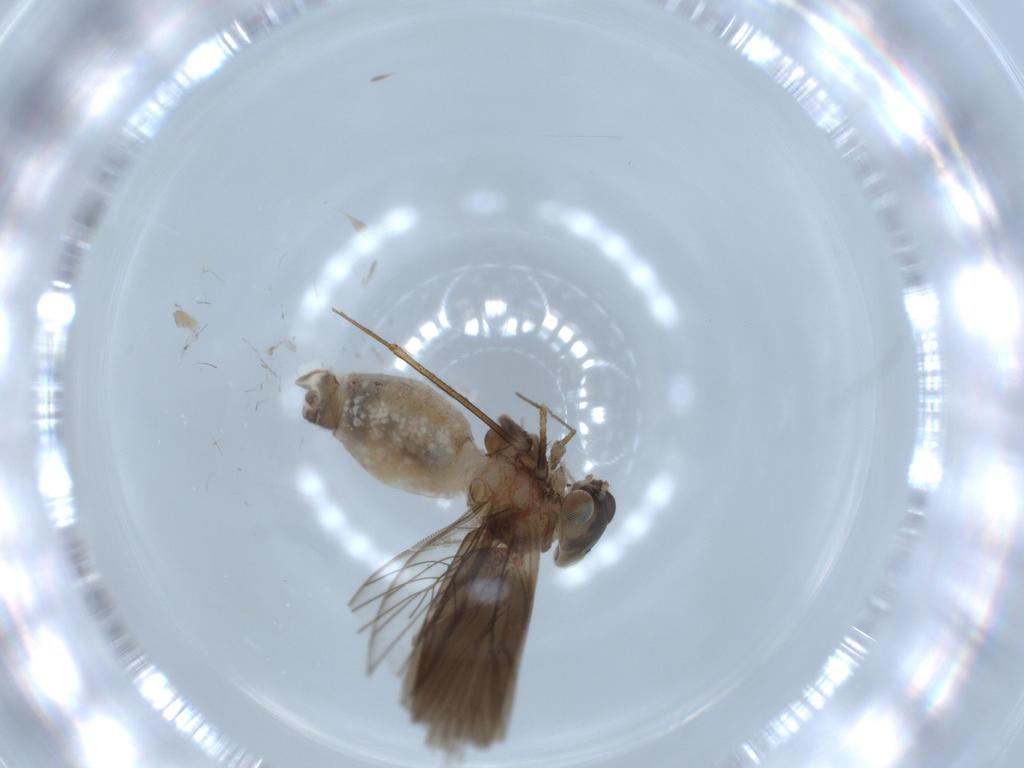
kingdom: Animalia
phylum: Arthropoda
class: Insecta
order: Psocodea
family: Lepidopsocidae
